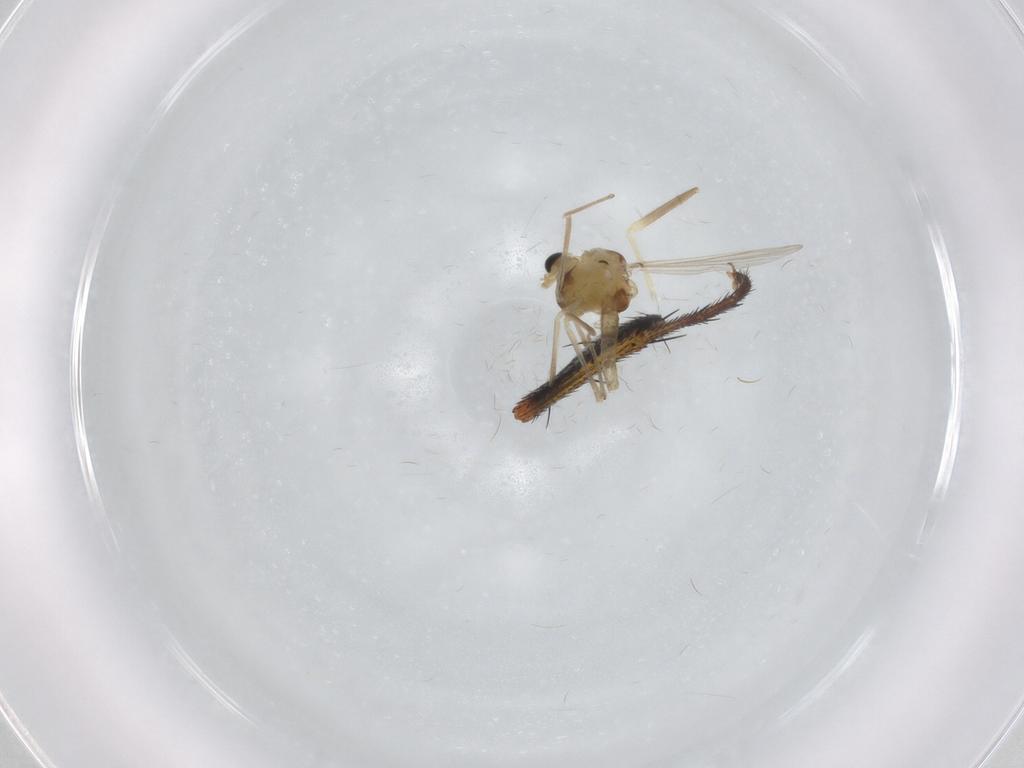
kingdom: Animalia
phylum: Arthropoda
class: Insecta
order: Diptera
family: Muscidae
